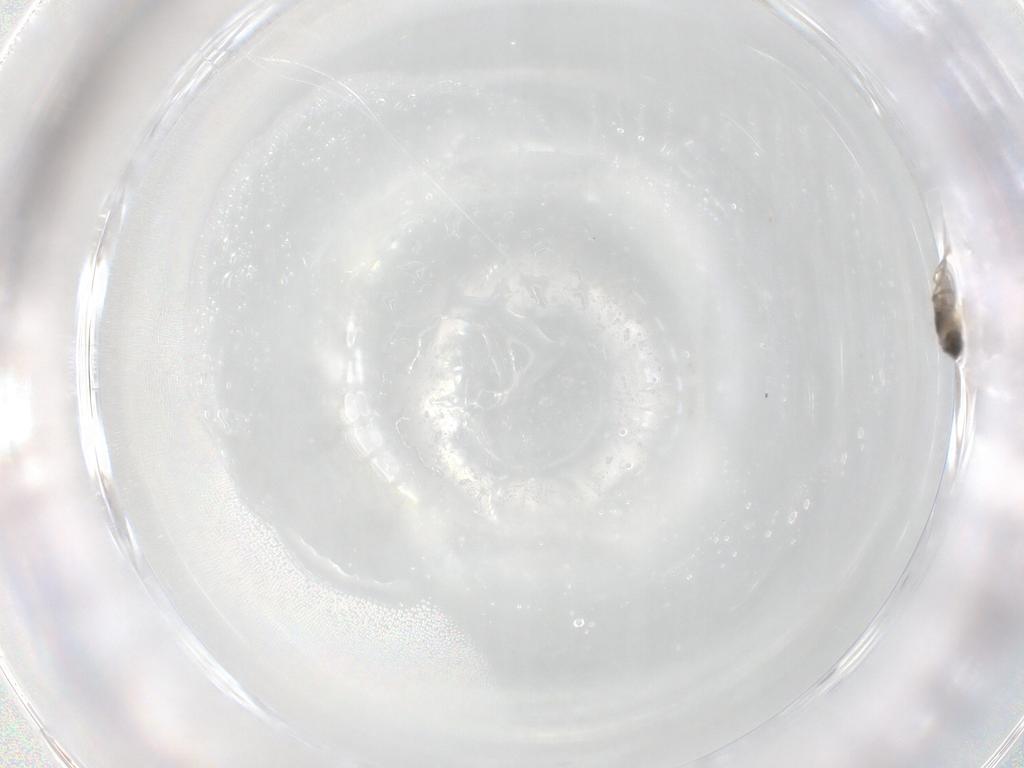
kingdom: Animalia
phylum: Arthropoda
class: Insecta
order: Diptera
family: Phoridae
